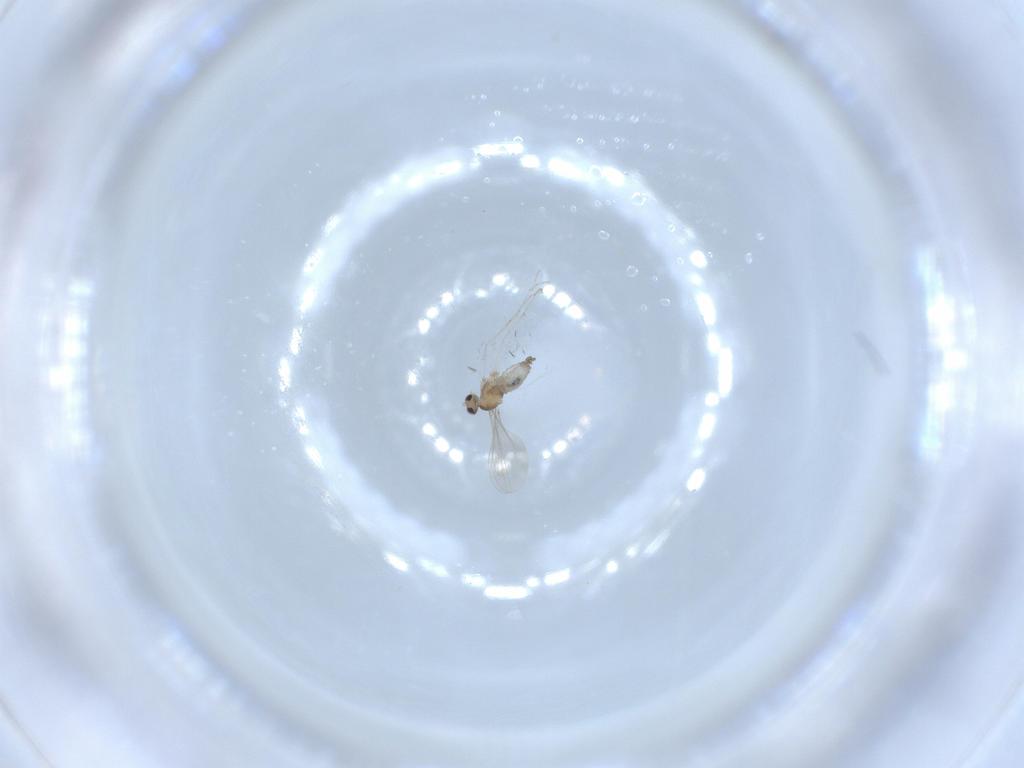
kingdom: Animalia
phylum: Arthropoda
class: Insecta
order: Diptera
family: Cecidomyiidae
